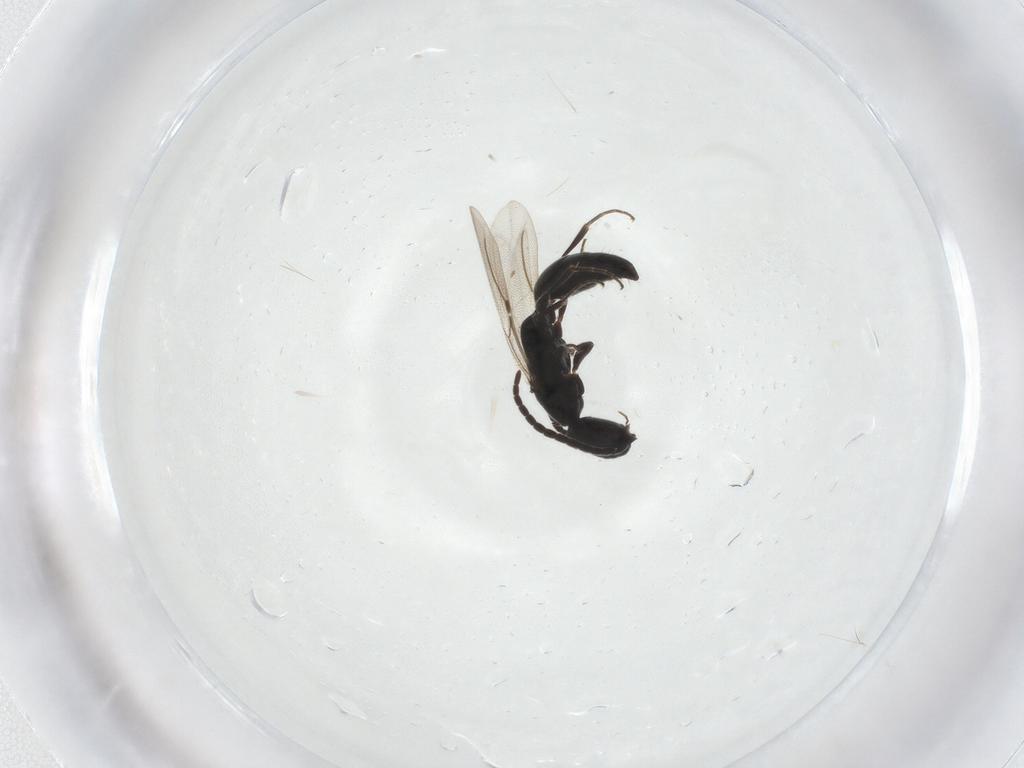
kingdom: Animalia
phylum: Arthropoda
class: Insecta
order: Hymenoptera
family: Bethylidae
